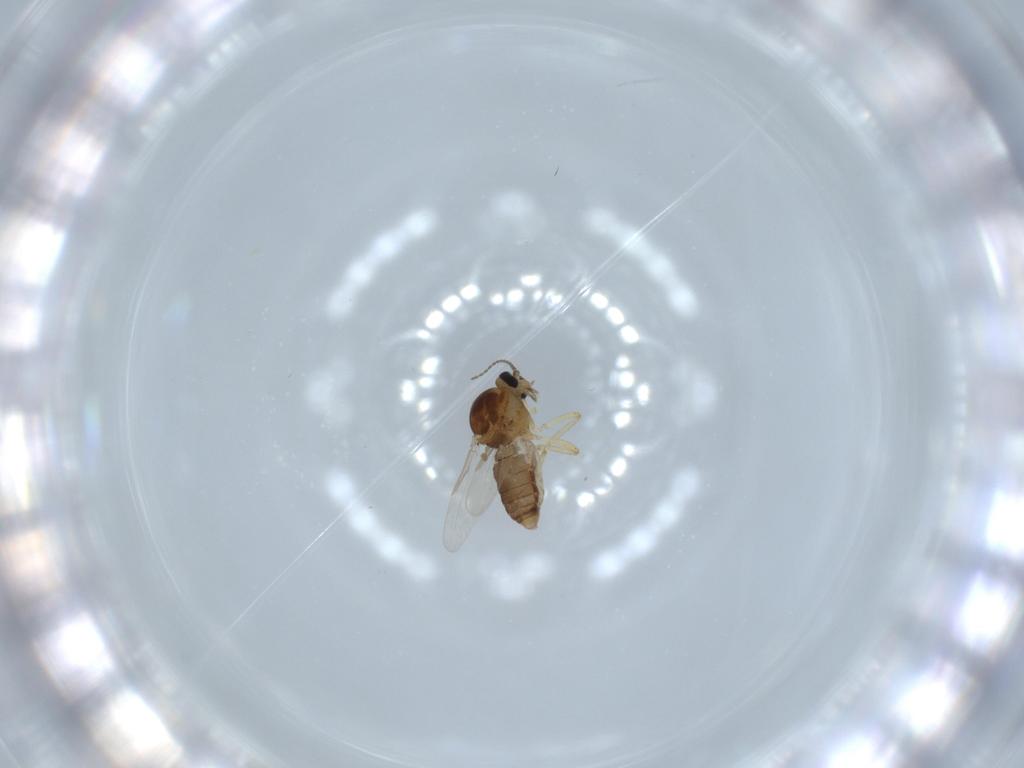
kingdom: Animalia
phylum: Arthropoda
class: Insecta
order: Diptera
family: Ceratopogonidae
